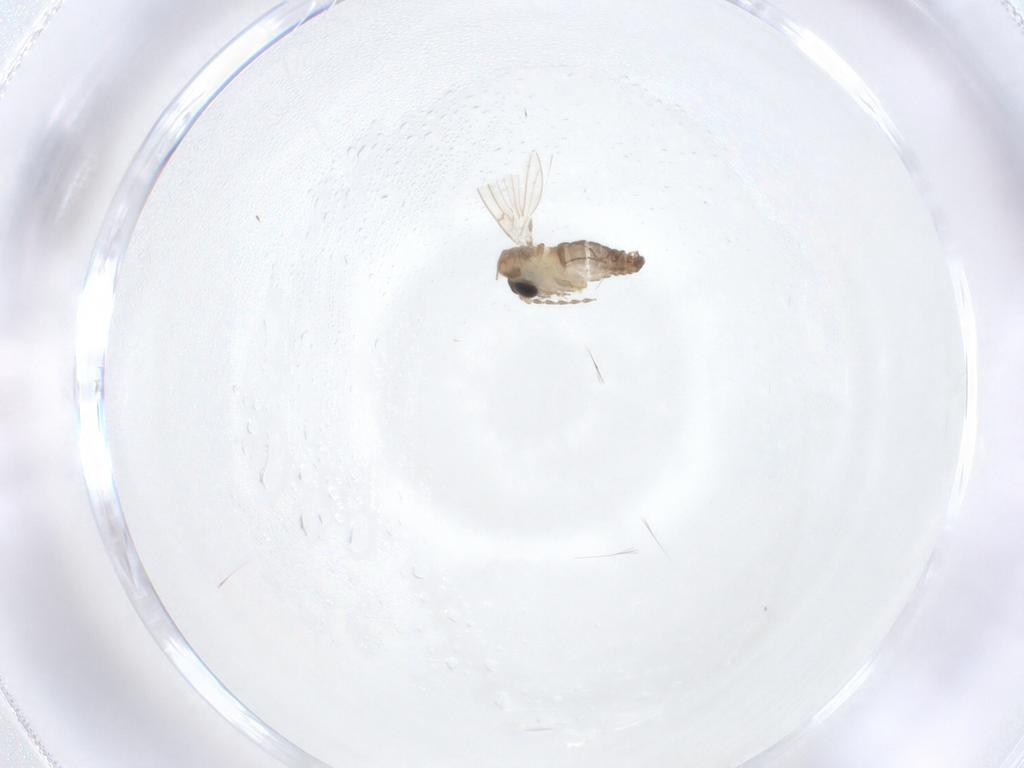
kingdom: Animalia
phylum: Arthropoda
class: Insecta
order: Diptera
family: Psychodidae
